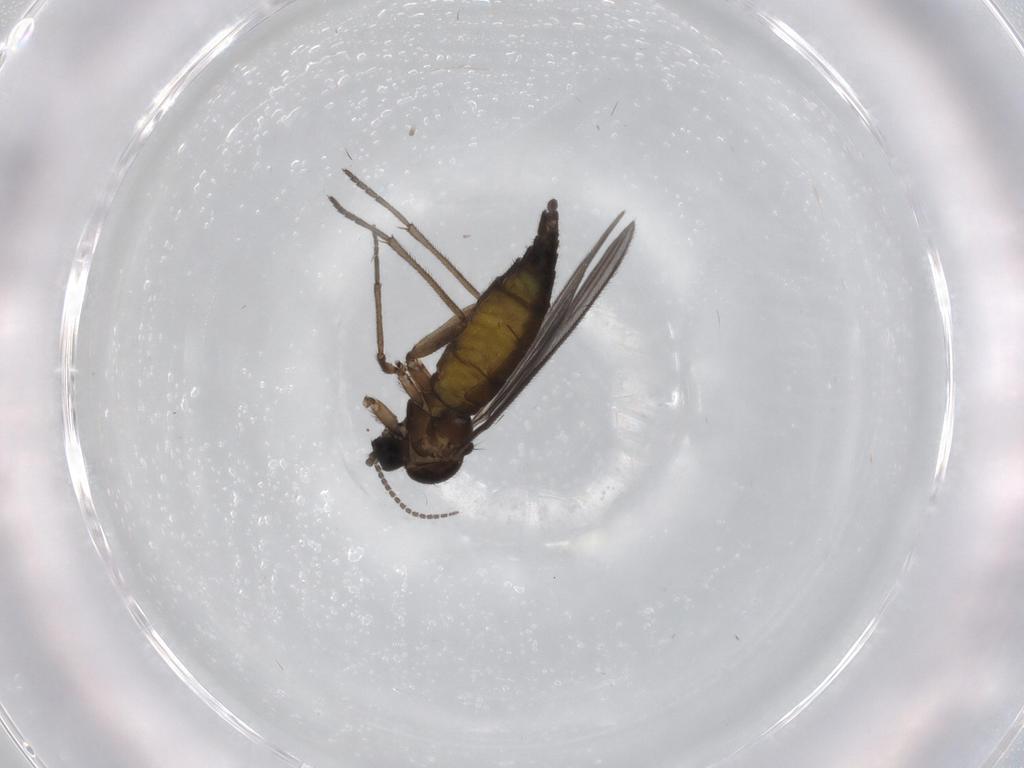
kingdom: Animalia
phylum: Arthropoda
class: Insecta
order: Diptera
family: Sciaridae
